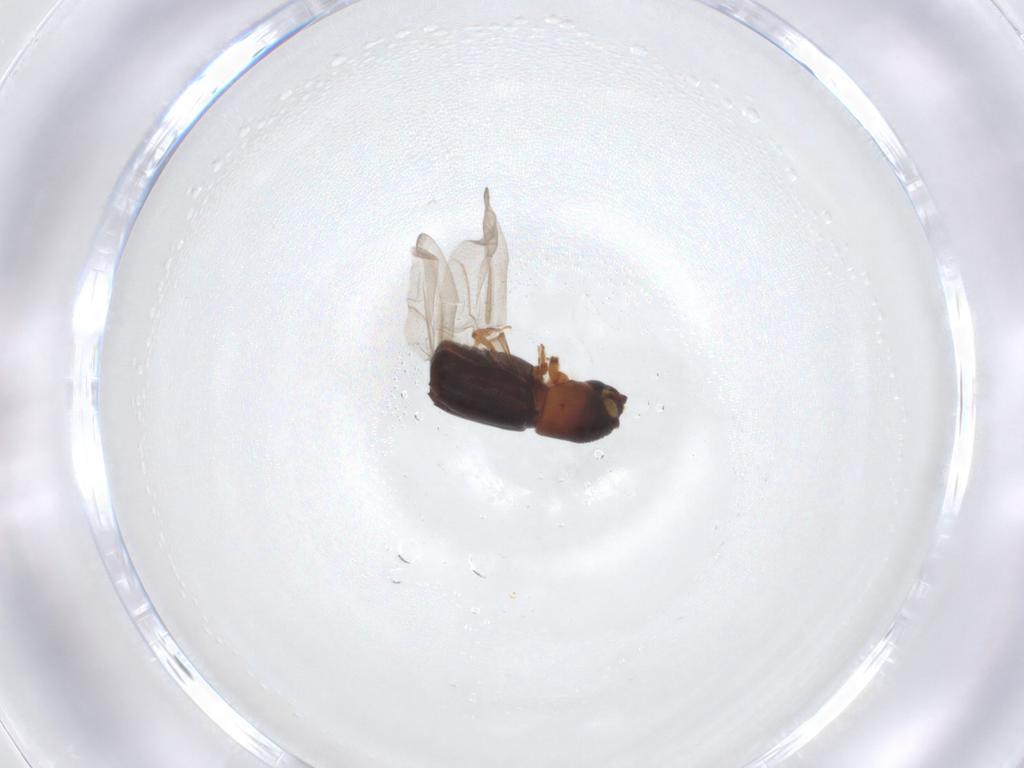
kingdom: Animalia
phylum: Arthropoda
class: Insecta
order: Coleoptera
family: Curculionidae
